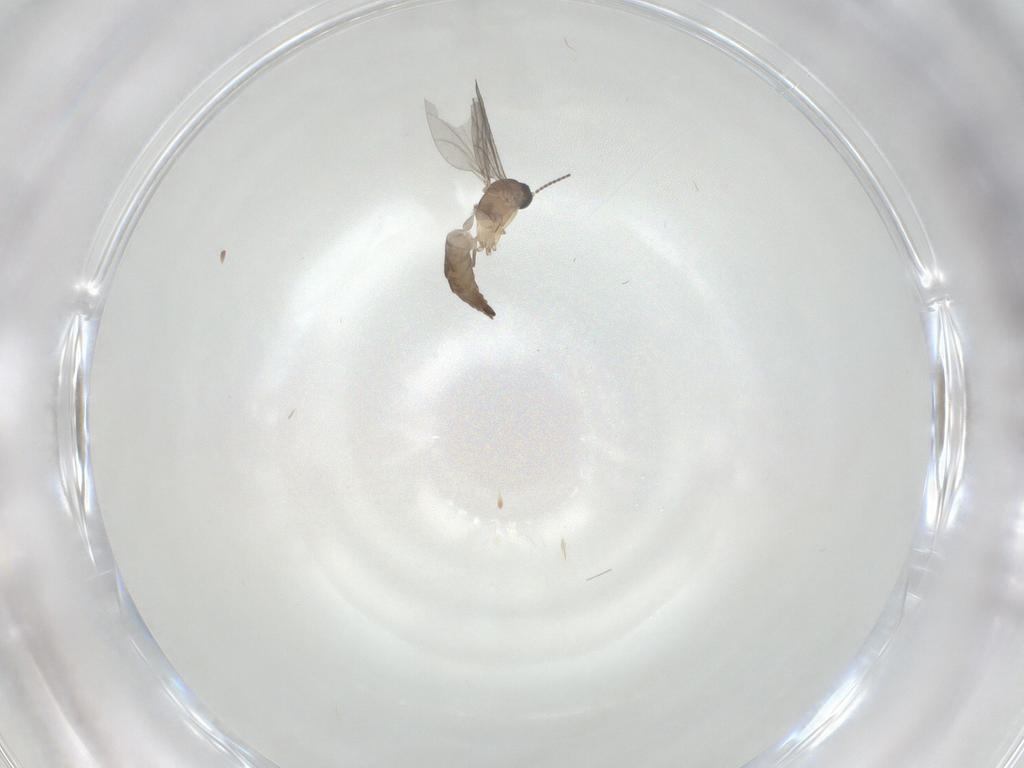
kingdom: Animalia
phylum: Arthropoda
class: Insecta
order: Diptera
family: Sciaridae
